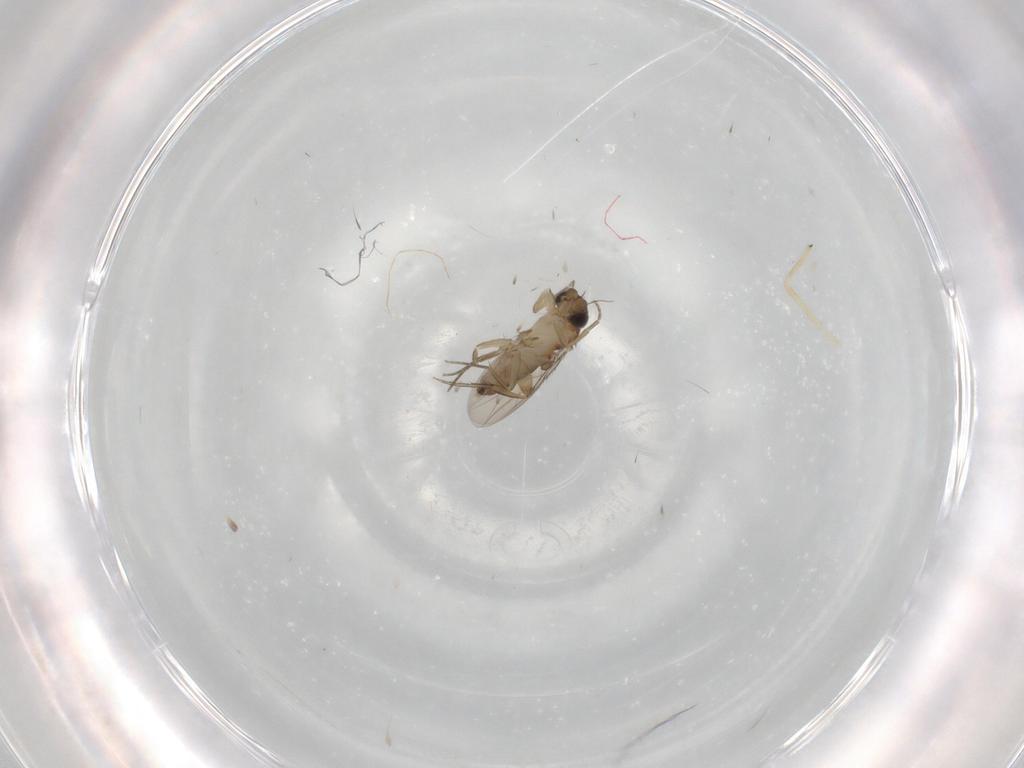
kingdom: Animalia
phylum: Arthropoda
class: Insecta
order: Diptera
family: Phoridae
